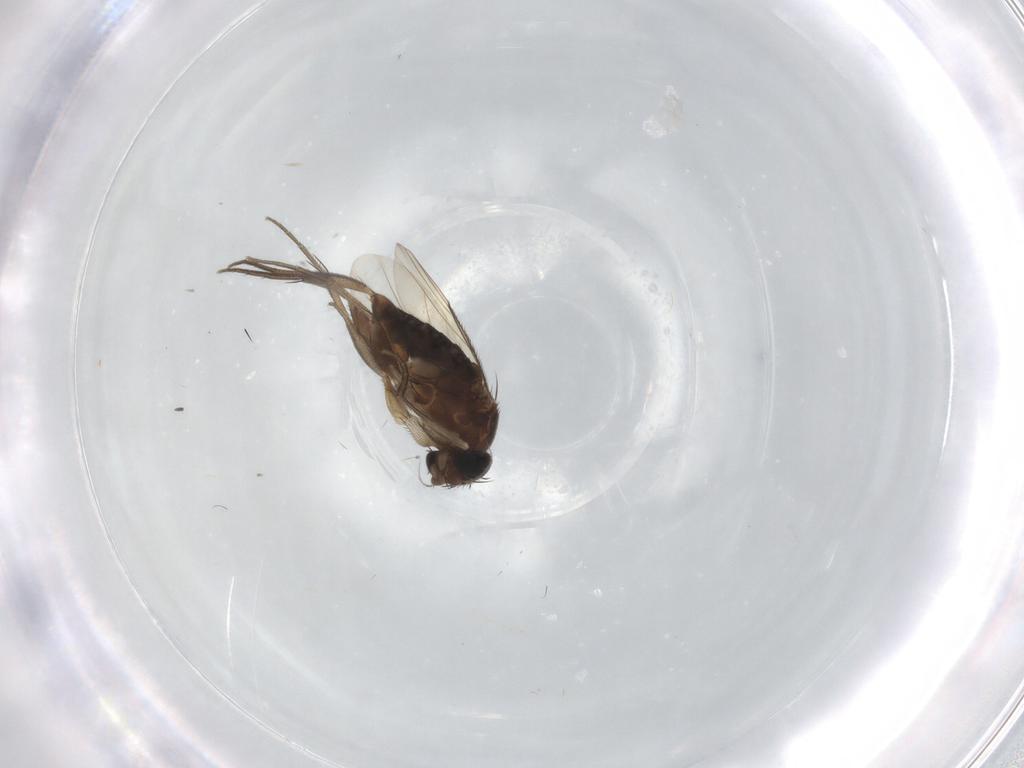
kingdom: Animalia
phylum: Arthropoda
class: Insecta
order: Diptera
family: Phoridae
